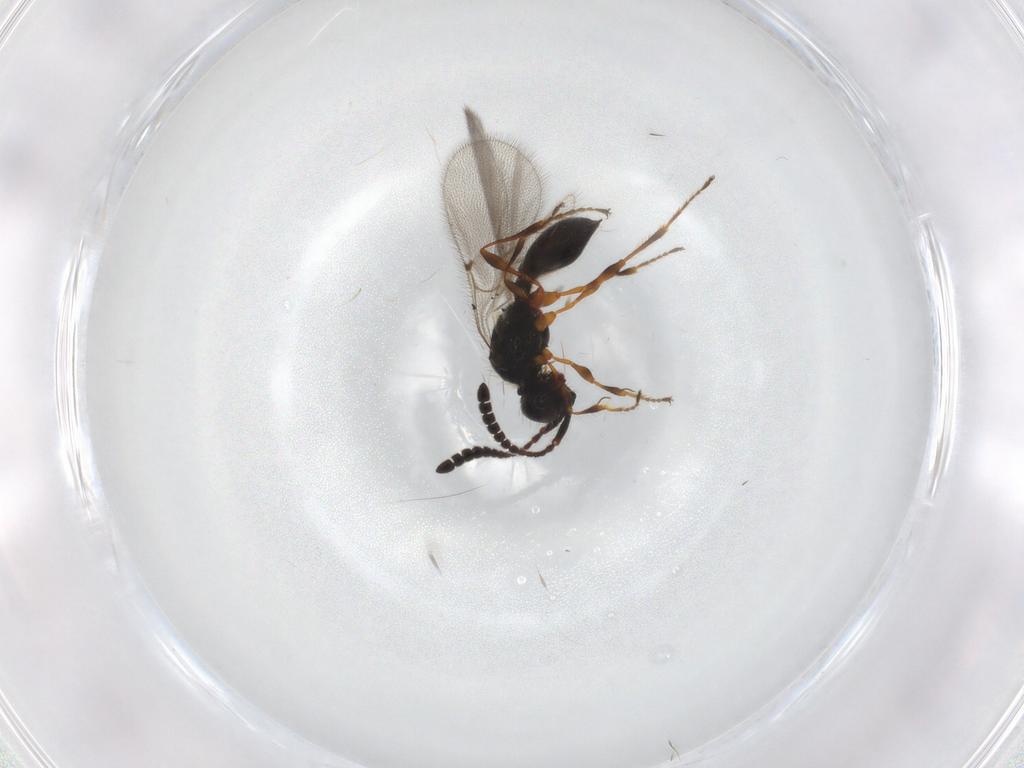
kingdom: Animalia
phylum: Arthropoda
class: Insecta
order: Hymenoptera
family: Diapriidae
